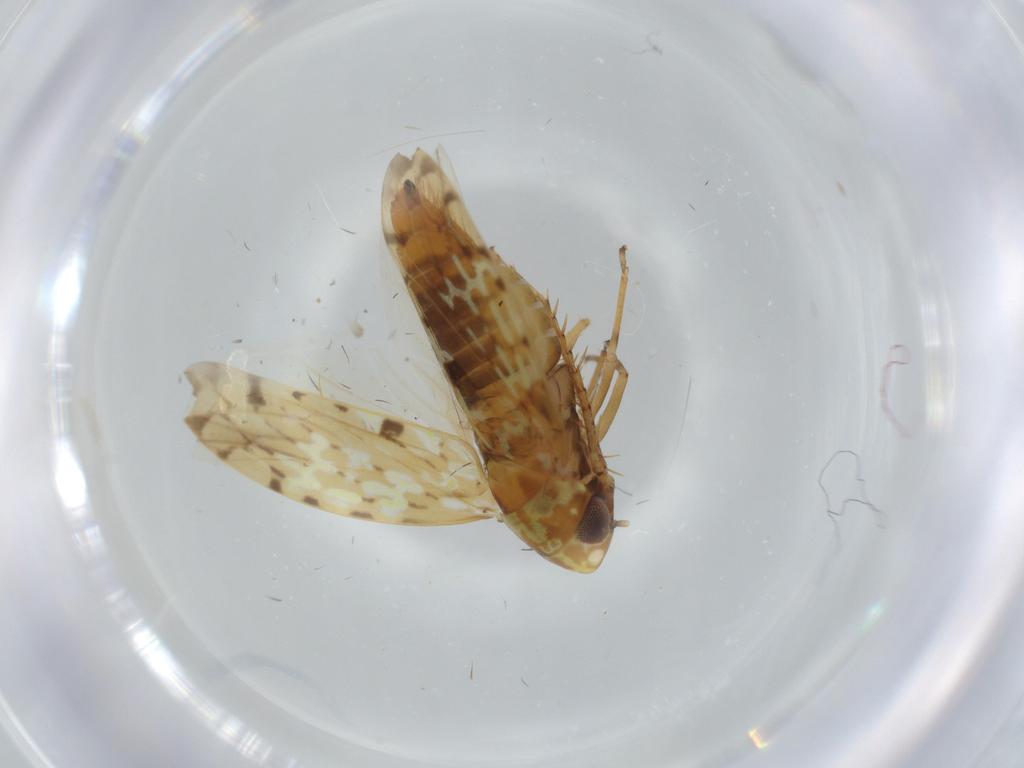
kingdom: Animalia
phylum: Arthropoda
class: Insecta
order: Hemiptera
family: Cicadellidae
